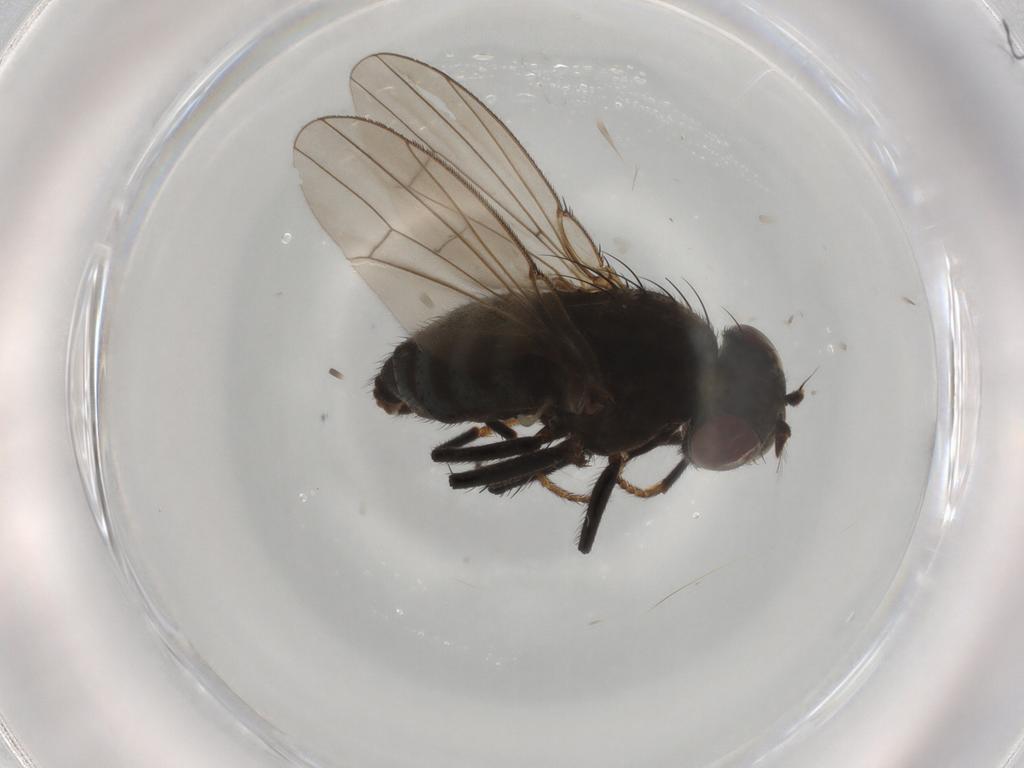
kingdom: Animalia
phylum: Arthropoda
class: Insecta
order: Diptera
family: Ephydridae
